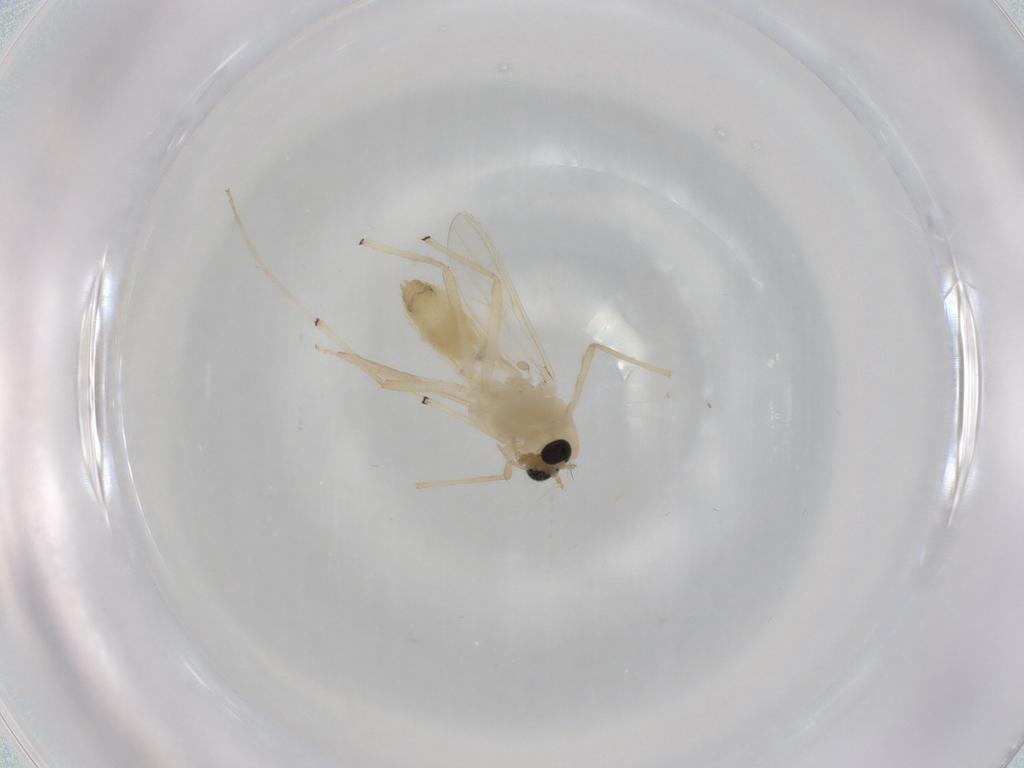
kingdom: Animalia
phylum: Arthropoda
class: Insecta
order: Diptera
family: Chironomidae
